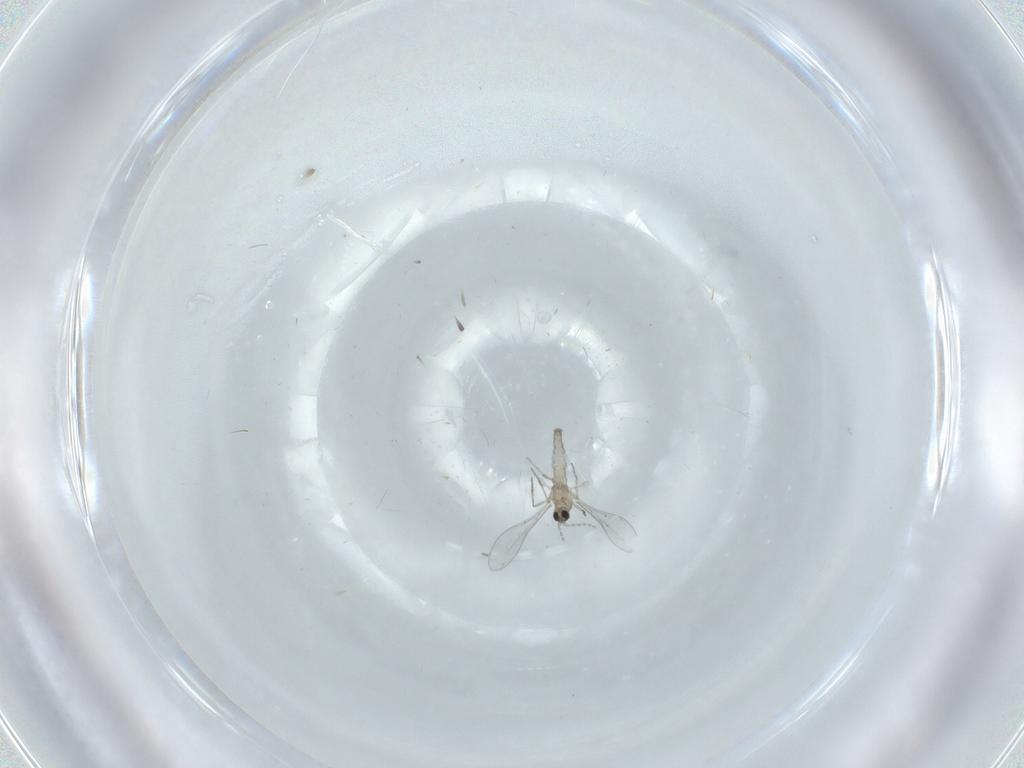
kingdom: Animalia
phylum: Arthropoda
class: Insecta
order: Diptera
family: Cecidomyiidae
